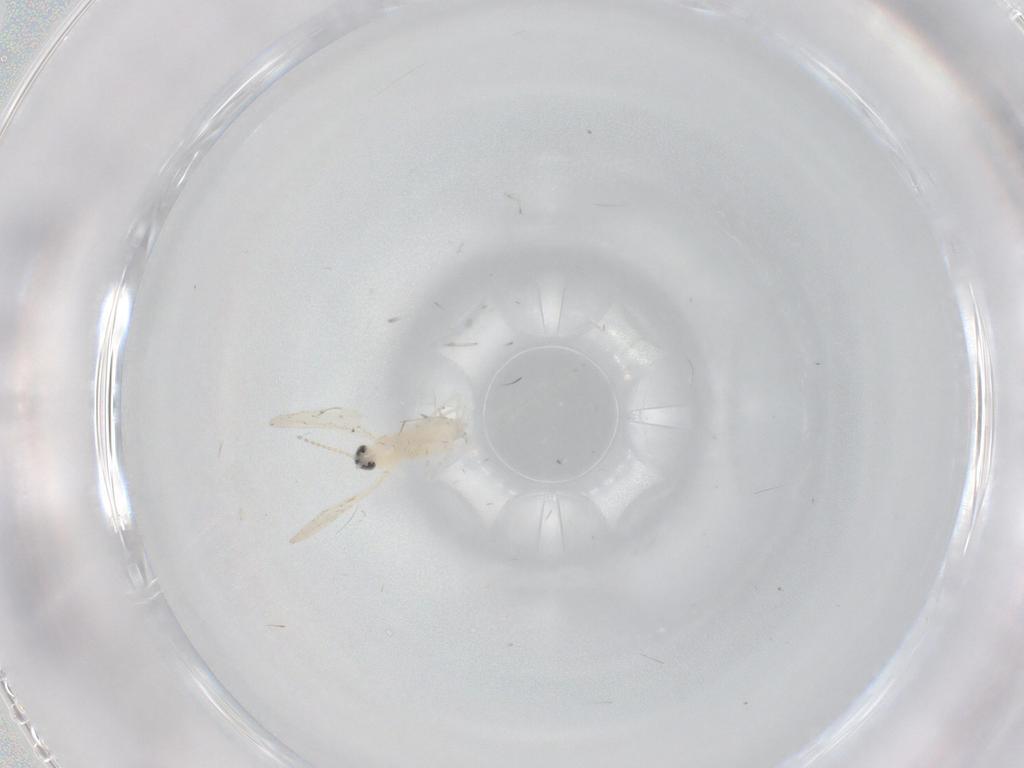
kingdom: Animalia
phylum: Arthropoda
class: Insecta
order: Diptera
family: Cecidomyiidae
